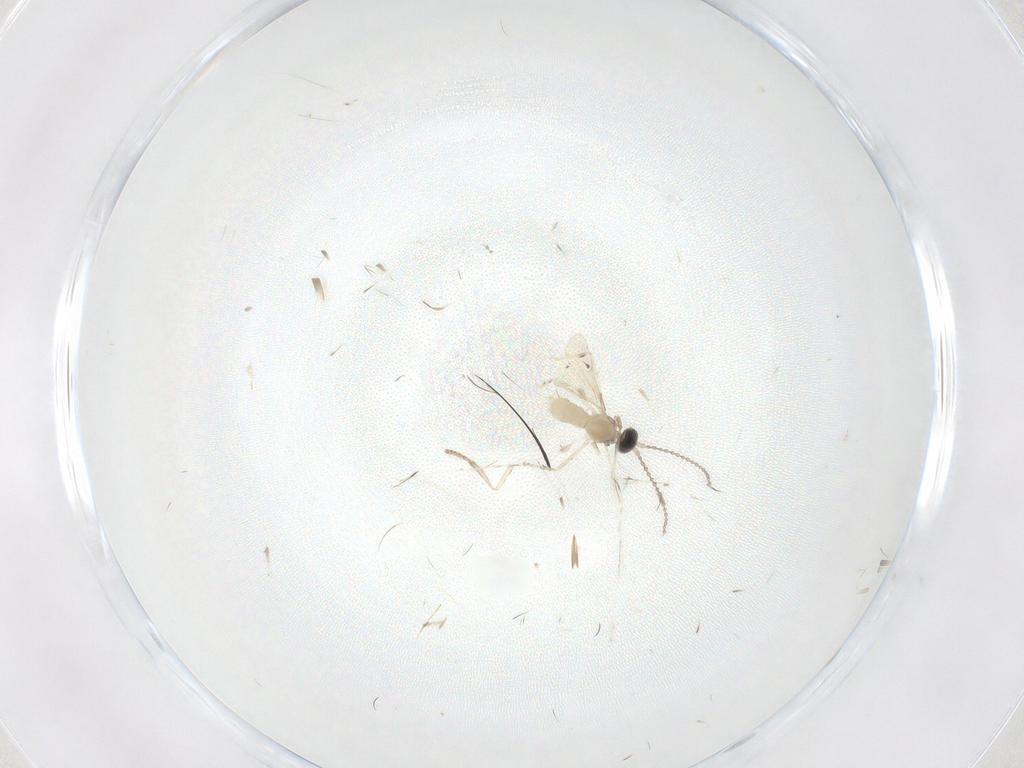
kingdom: Animalia
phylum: Arthropoda
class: Insecta
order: Diptera
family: Cecidomyiidae
